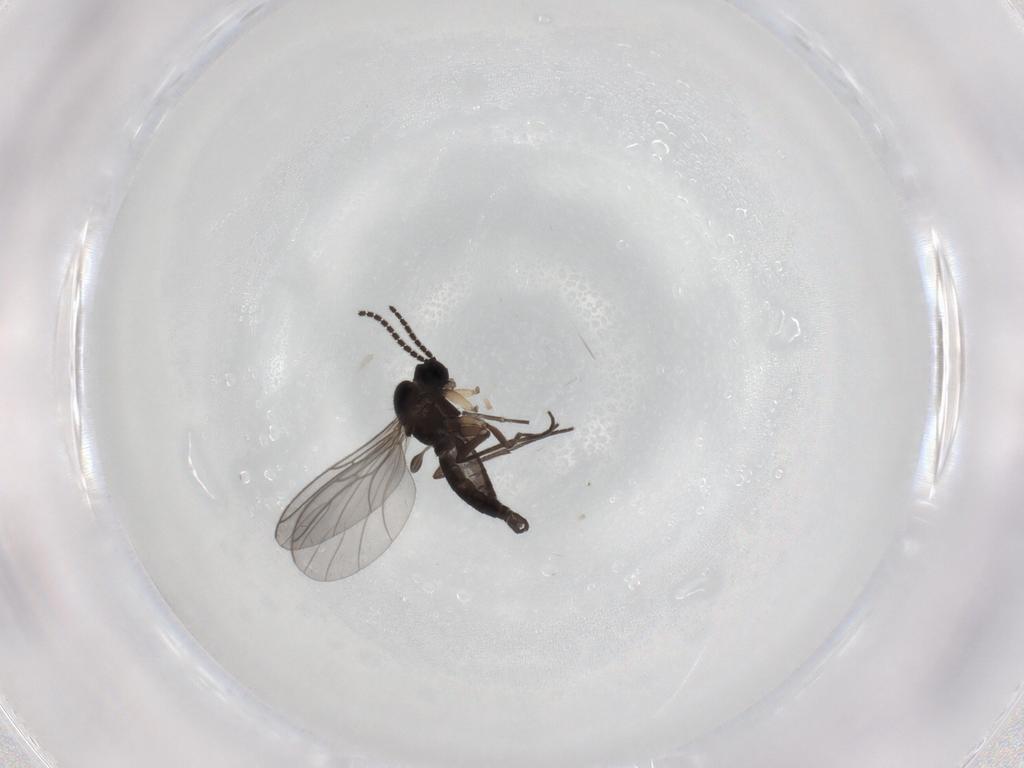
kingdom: Animalia
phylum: Arthropoda
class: Insecta
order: Diptera
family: Sciaridae
